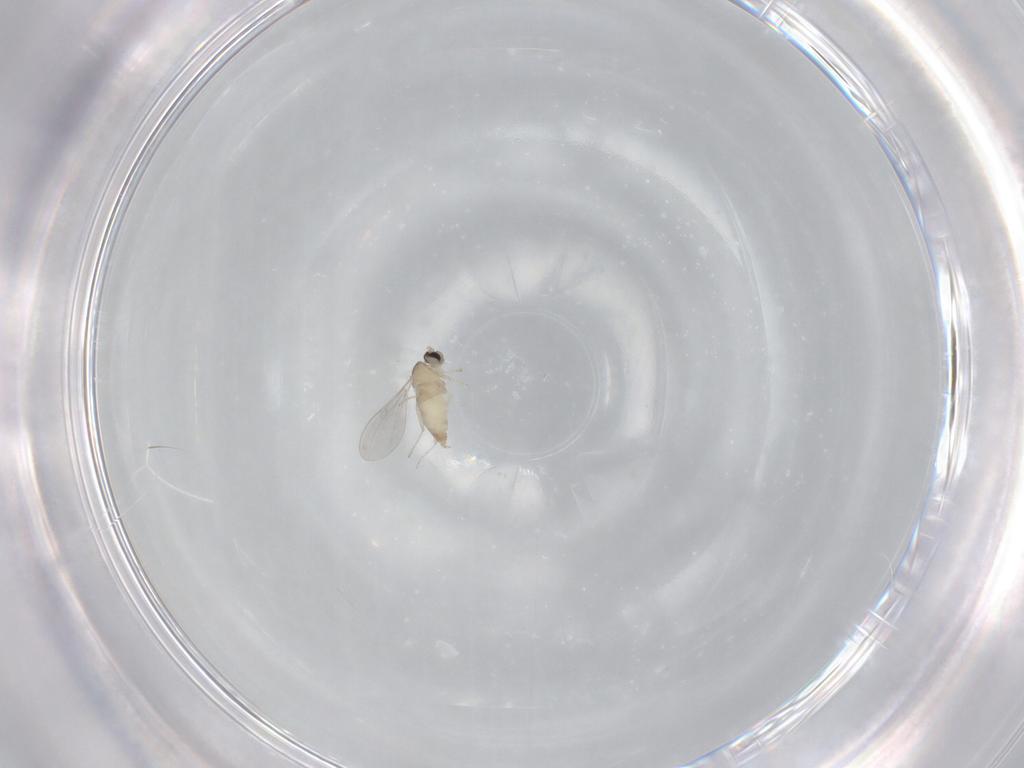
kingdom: Animalia
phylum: Arthropoda
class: Insecta
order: Diptera
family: Cecidomyiidae
